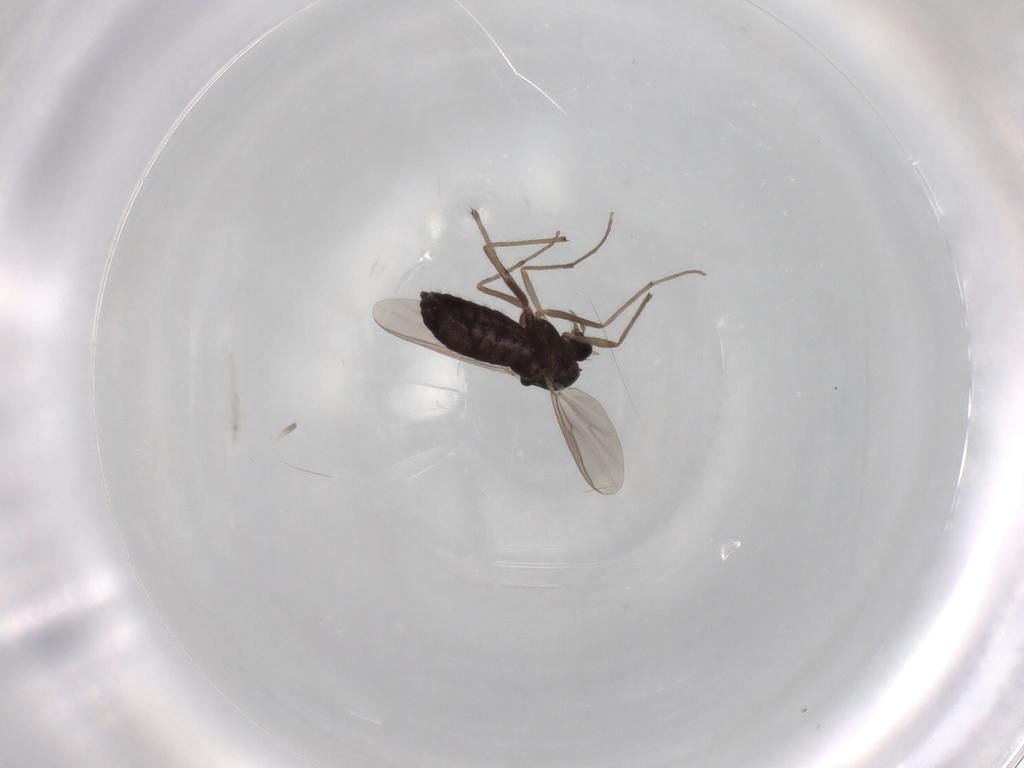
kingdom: Animalia
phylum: Arthropoda
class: Insecta
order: Diptera
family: Chironomidae
